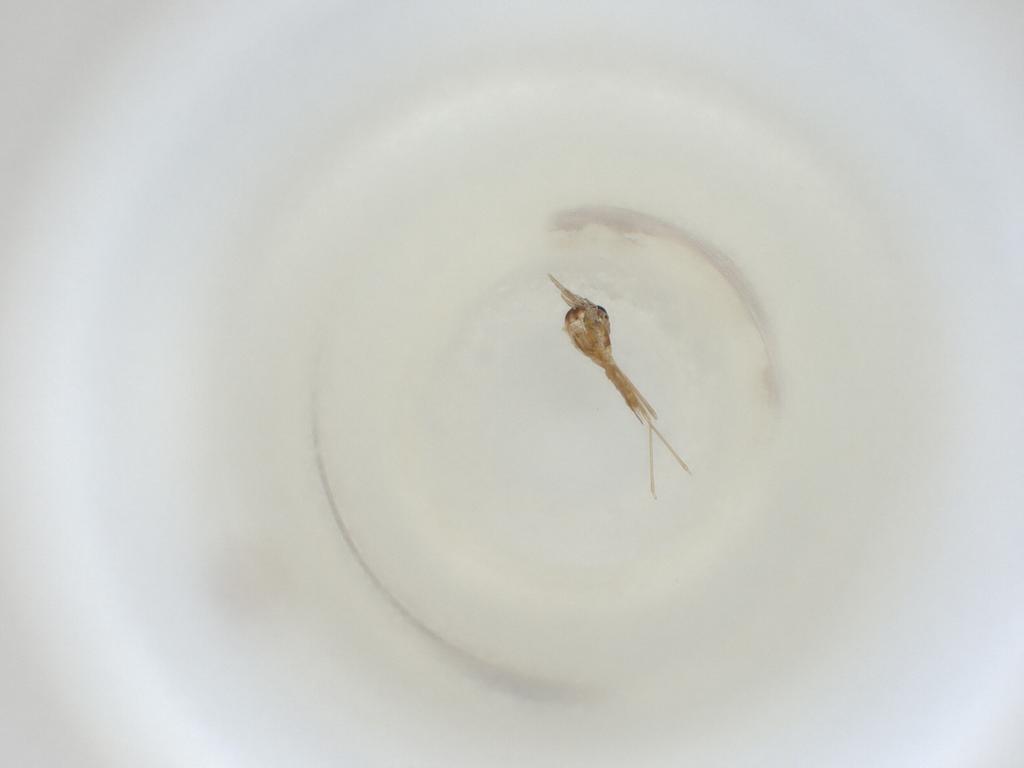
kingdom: Animalia
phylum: Arthropoda
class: Insecta
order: Diptera
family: Cecidomyiidae
